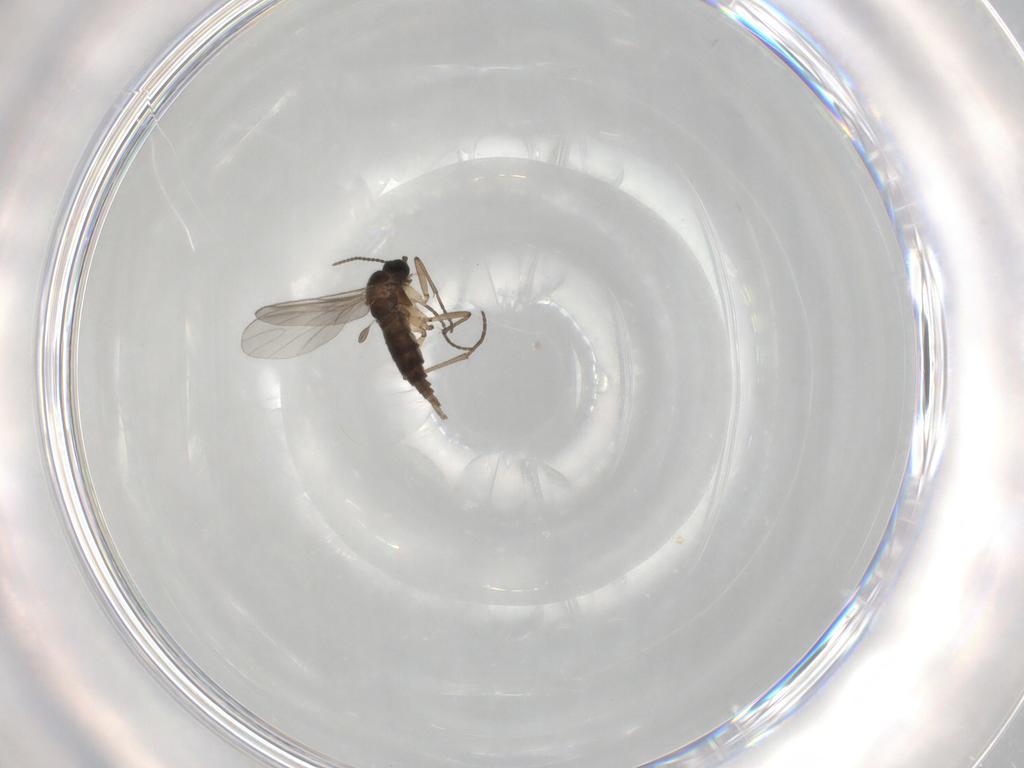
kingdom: Animalia
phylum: Arthropoda
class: Insecta
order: Diptera
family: Sciaridae
